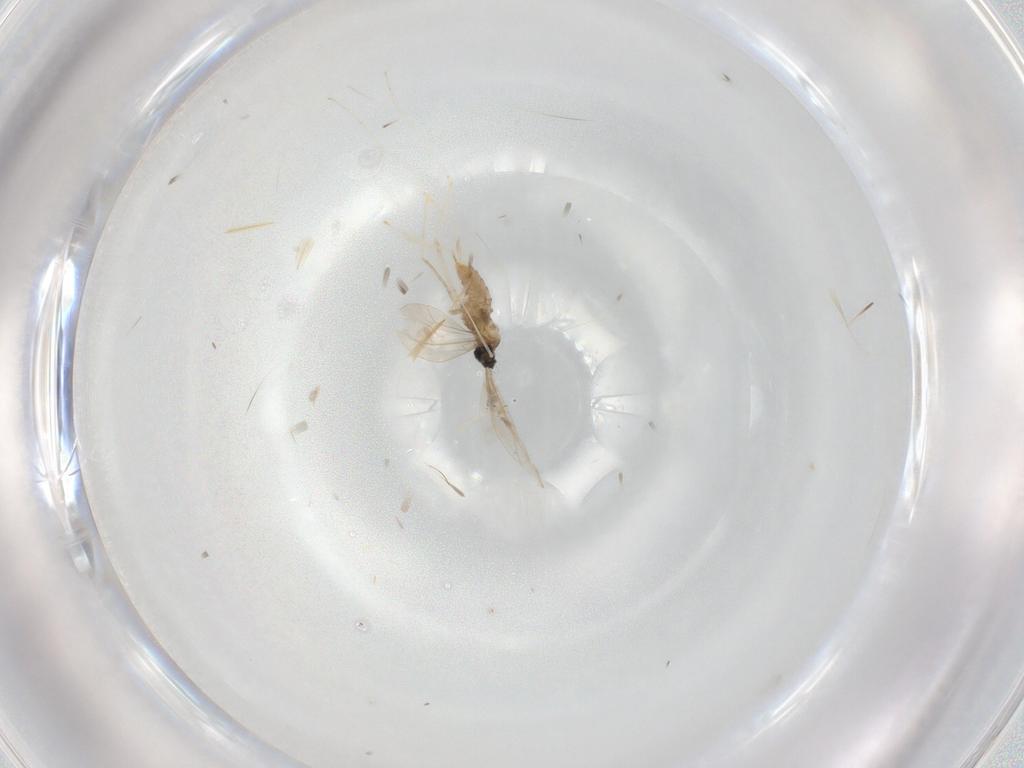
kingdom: Animalia
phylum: Arthropoda
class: Insecta
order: Diptera
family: Cecidomyiidae
